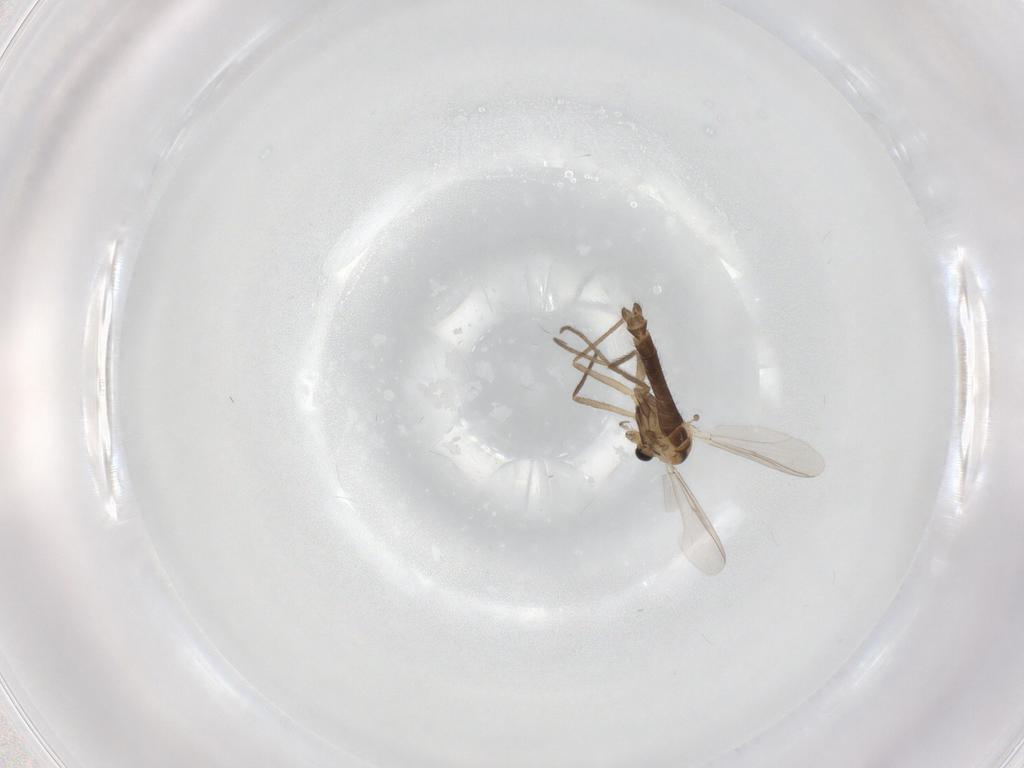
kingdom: Animalia
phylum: Arthropoda
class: Insecta
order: Diptera
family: Chironomidae
